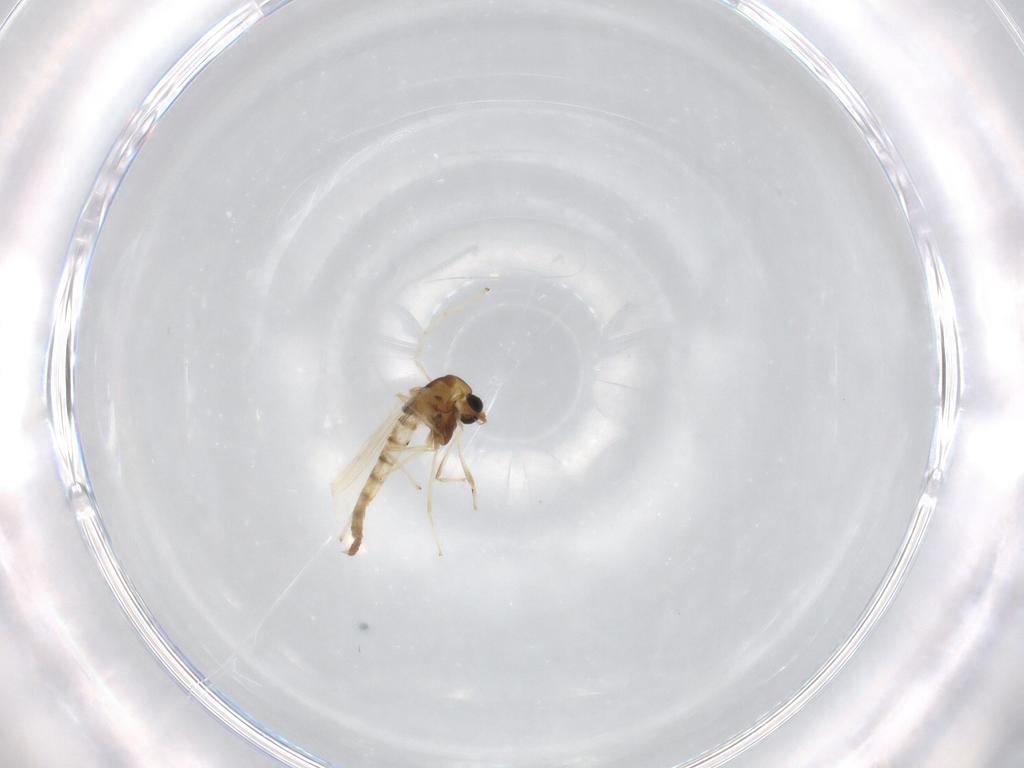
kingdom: Animalia
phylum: Arthropoda
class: Insecta
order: Diptera
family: Chironomidae
